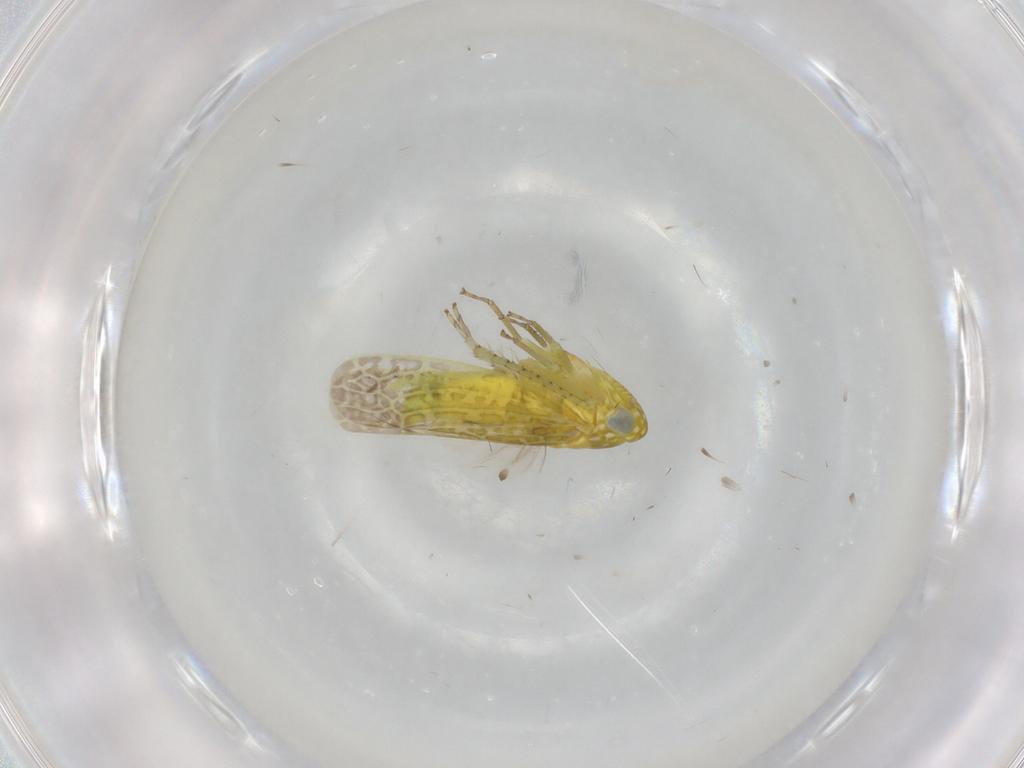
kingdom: Animalia
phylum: Arthropoda
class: Insecta
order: Hemiptera
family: Cicadellidae
